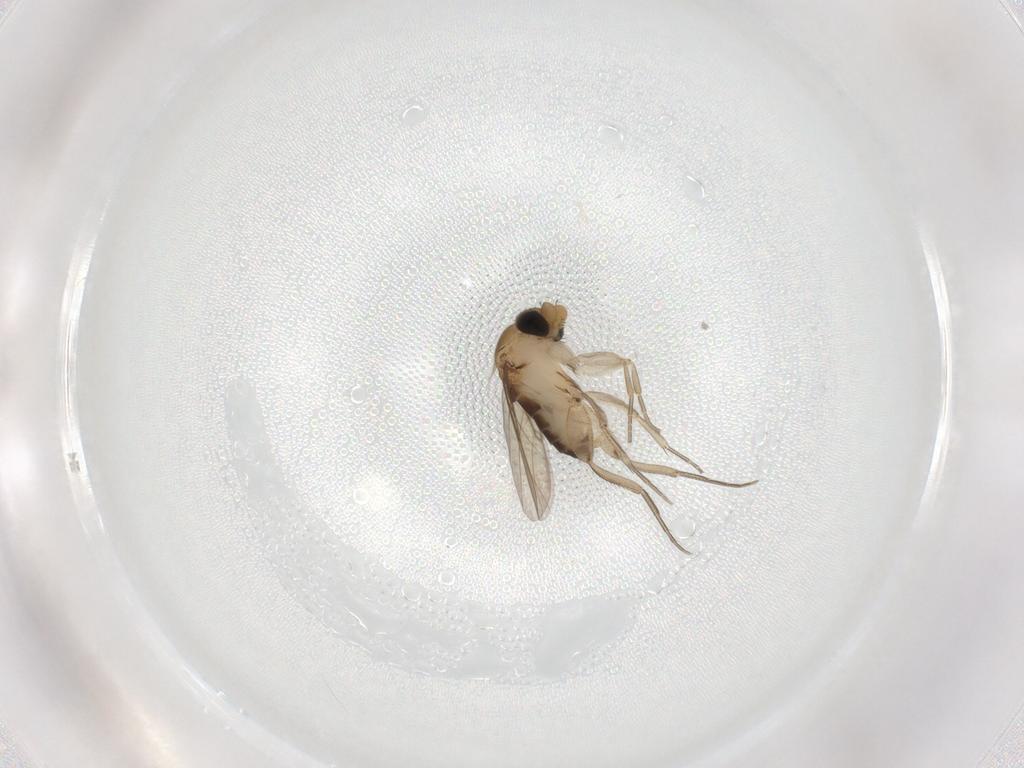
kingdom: Animalia
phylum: Arthropoda
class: Insecta
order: Diptera
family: Phoridae
